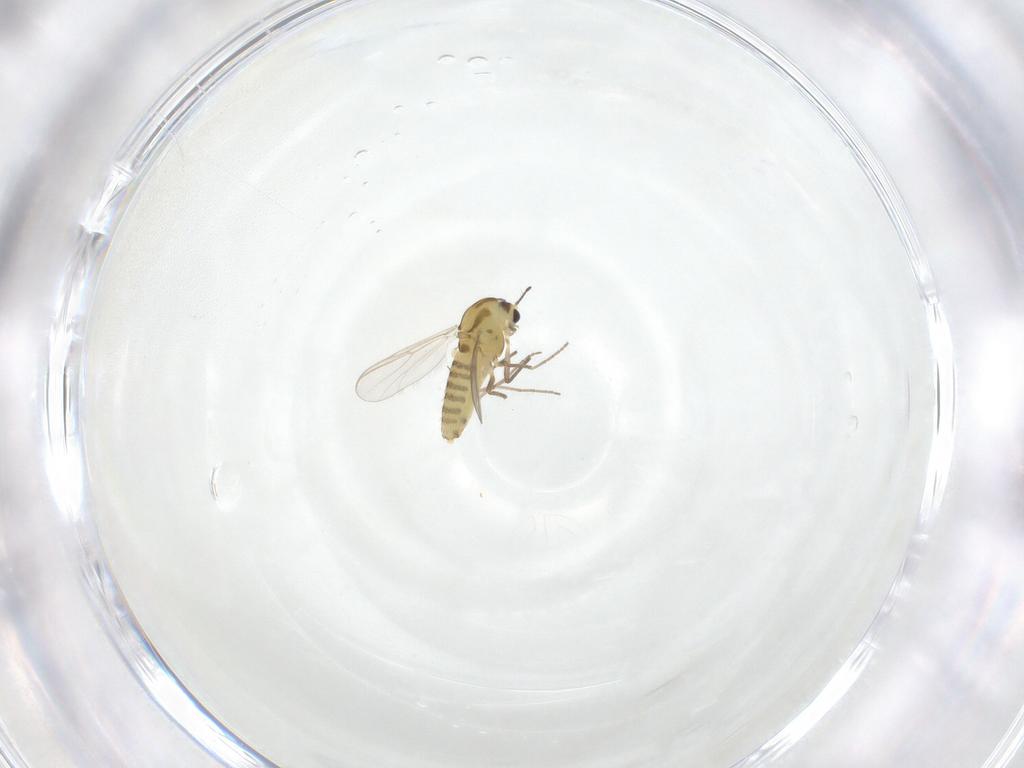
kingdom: Animalia
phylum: Arthropoda
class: Insecta
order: Diptera
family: Chironomidae
